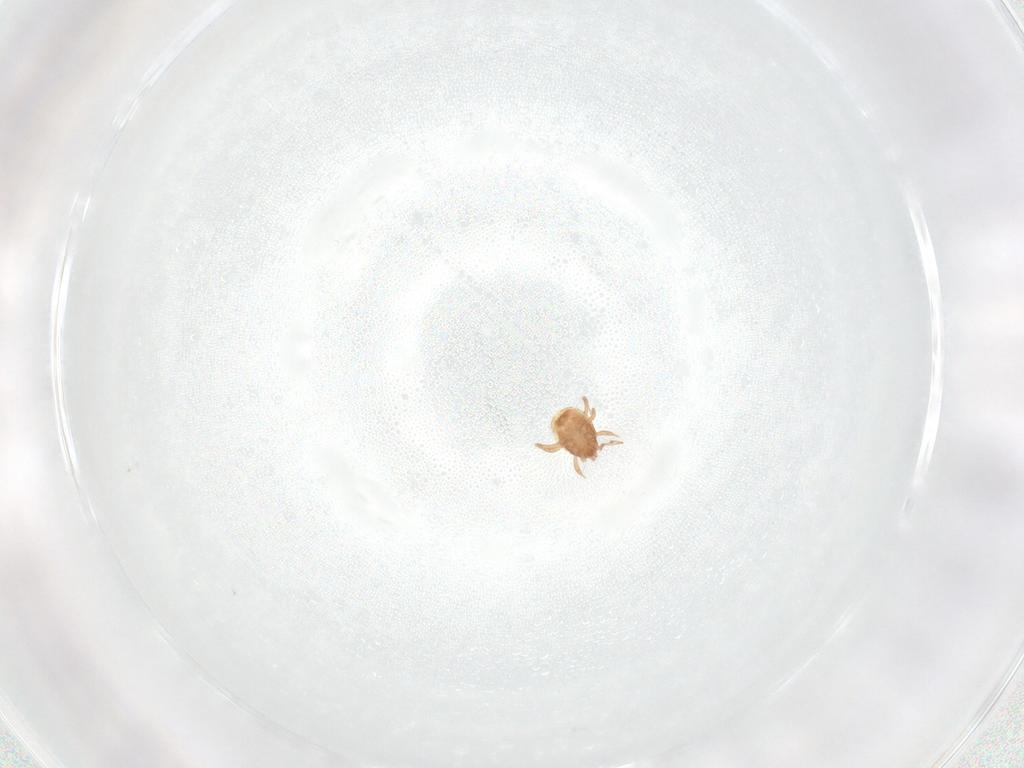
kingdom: Animalia
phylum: Arthropoda
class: Arachnida
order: Mesostigmata
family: Blattisociidae
